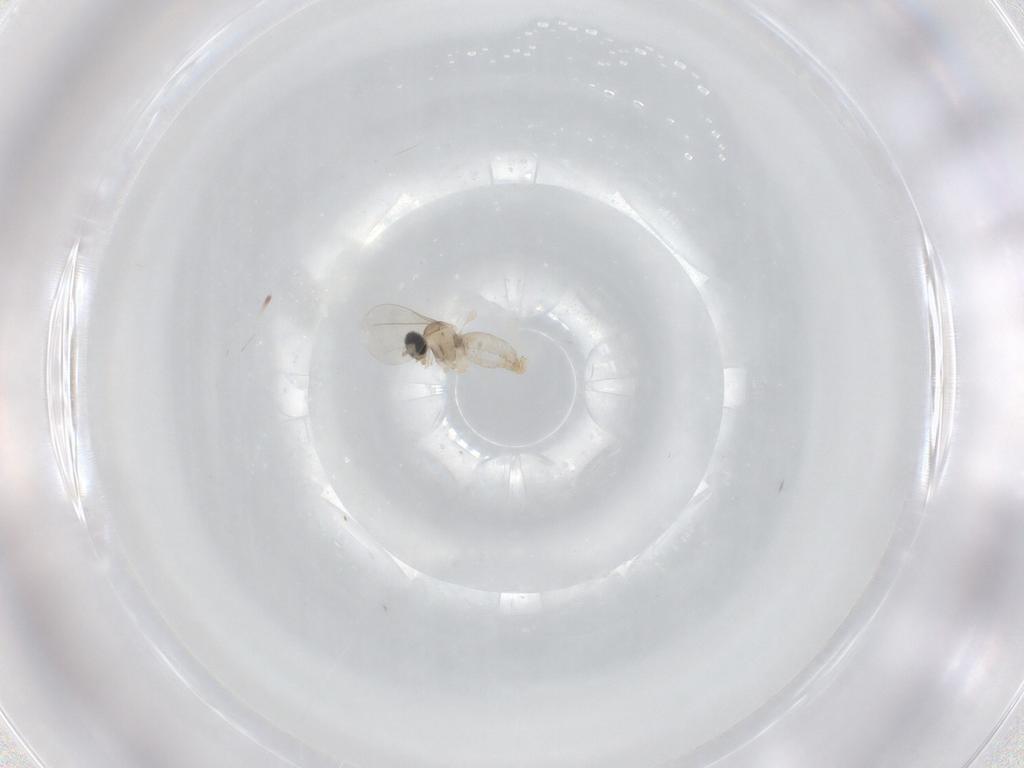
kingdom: Animalia
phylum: Arthropoda
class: Insecta
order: Diptera
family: Cecidomyiidae
